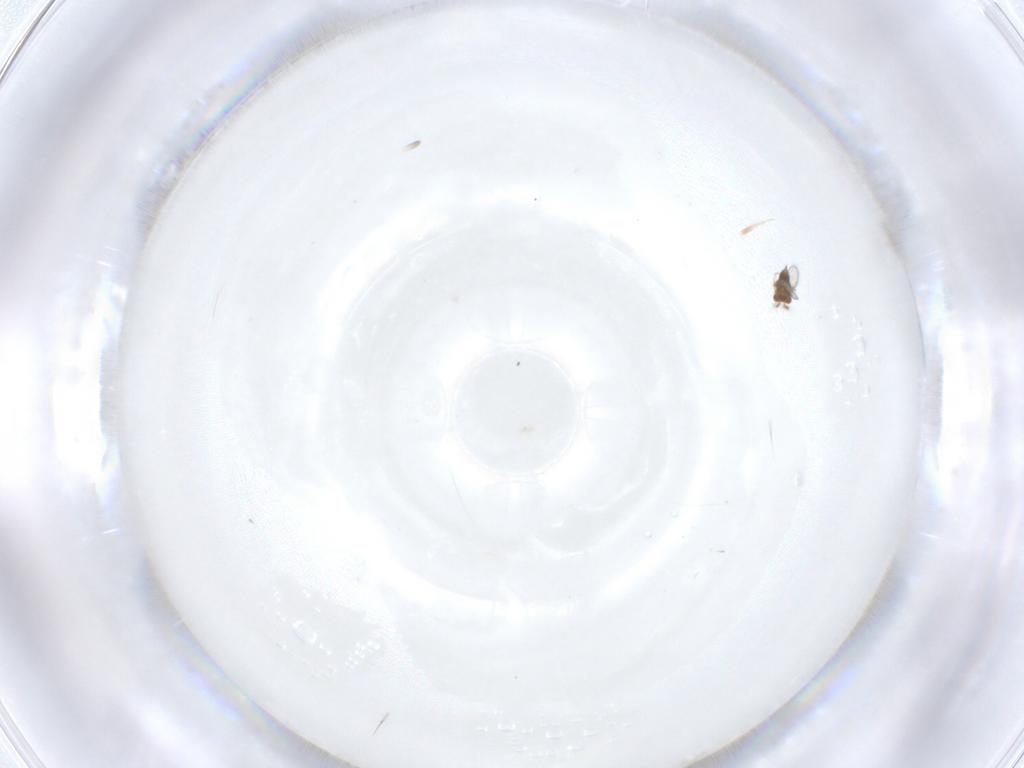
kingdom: Animalia
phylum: Arthropoda
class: Insecta
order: Hymenoptera
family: Trichogrammatidae
